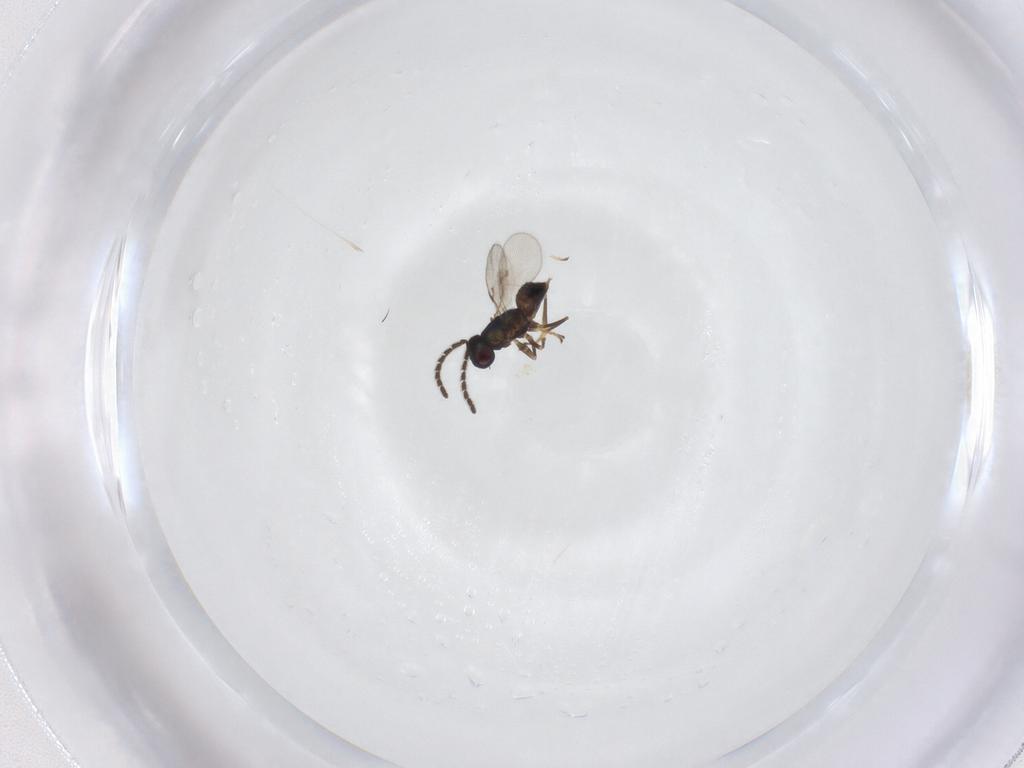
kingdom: Animalia
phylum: Arthropoda
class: Insecta
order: Hymenoptera
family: Encyrtidae
